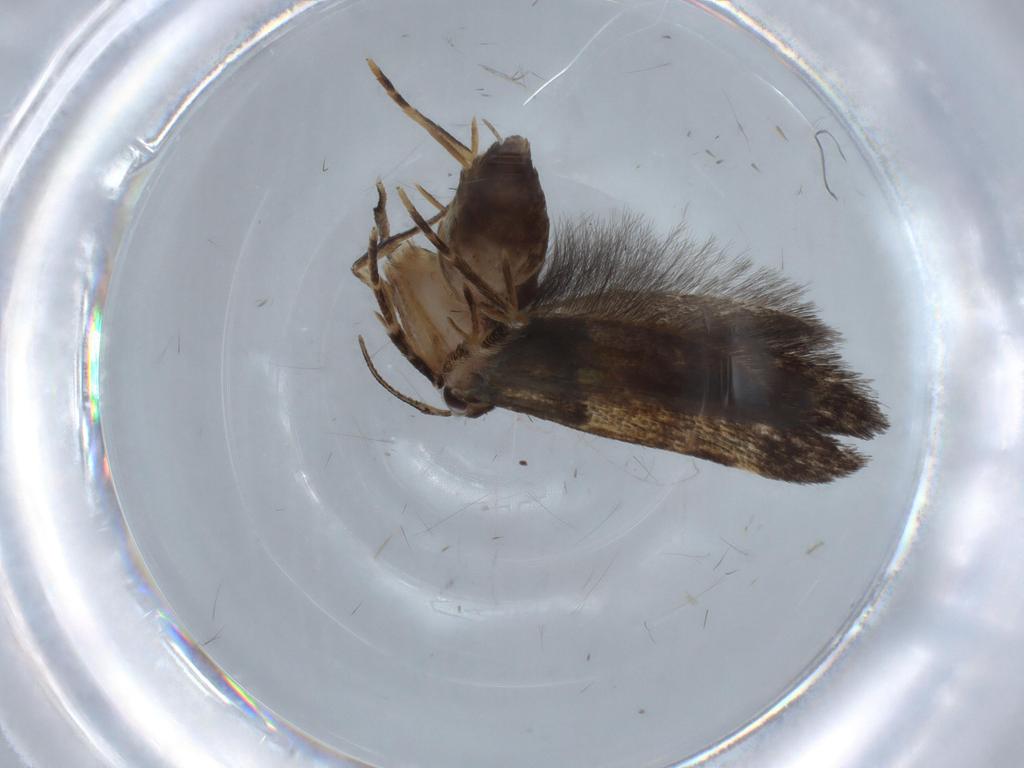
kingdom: Animalia
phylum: Arthropoda
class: Insecta
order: Lepidoptera
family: Cosmopterigidae
